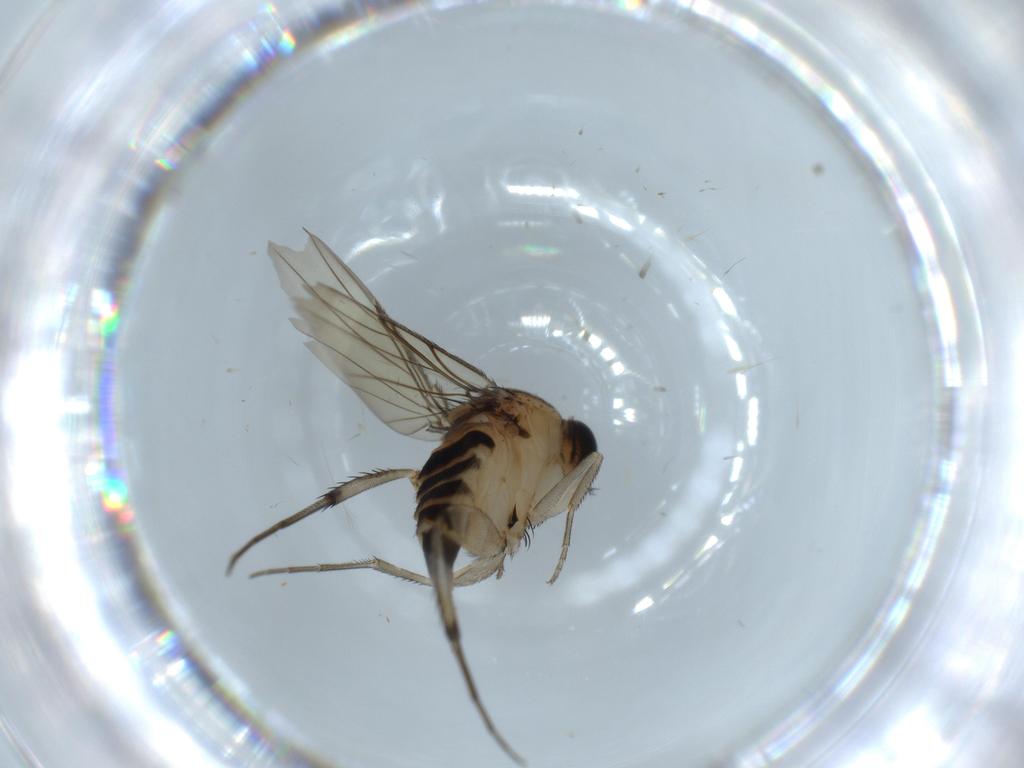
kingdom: Animalia
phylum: Arthropoda
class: Insecta
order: Diptera
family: Phoridae
